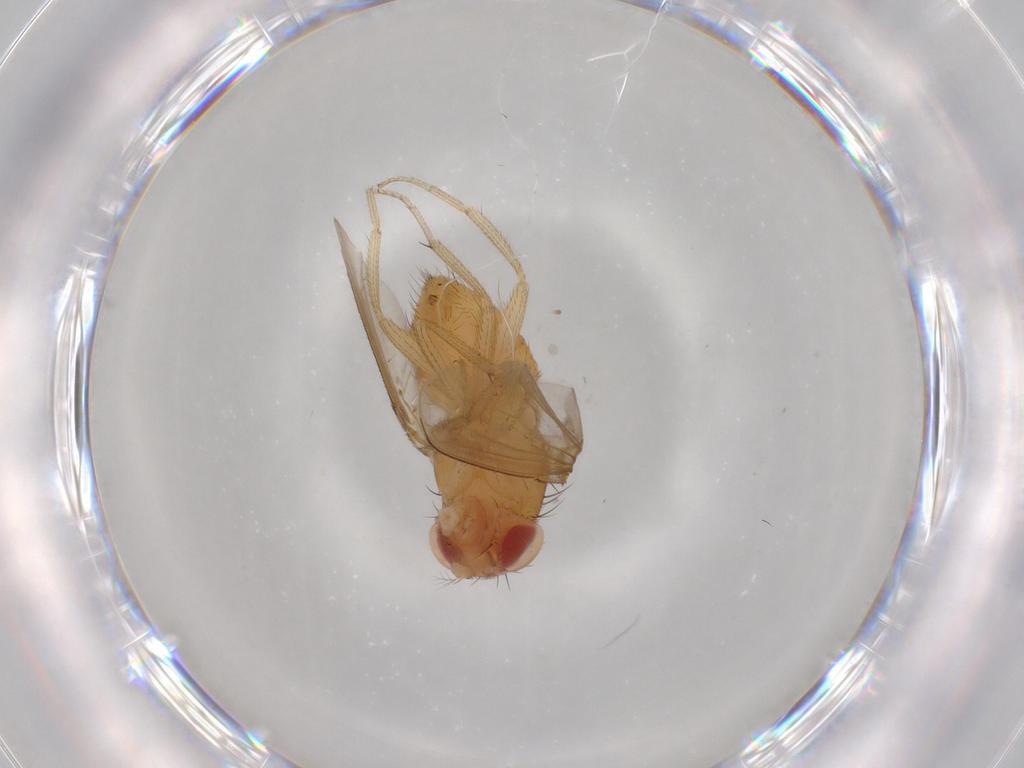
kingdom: Animalia
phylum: Arthropoda
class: Insecta
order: Diptera
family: Drosophilidae
